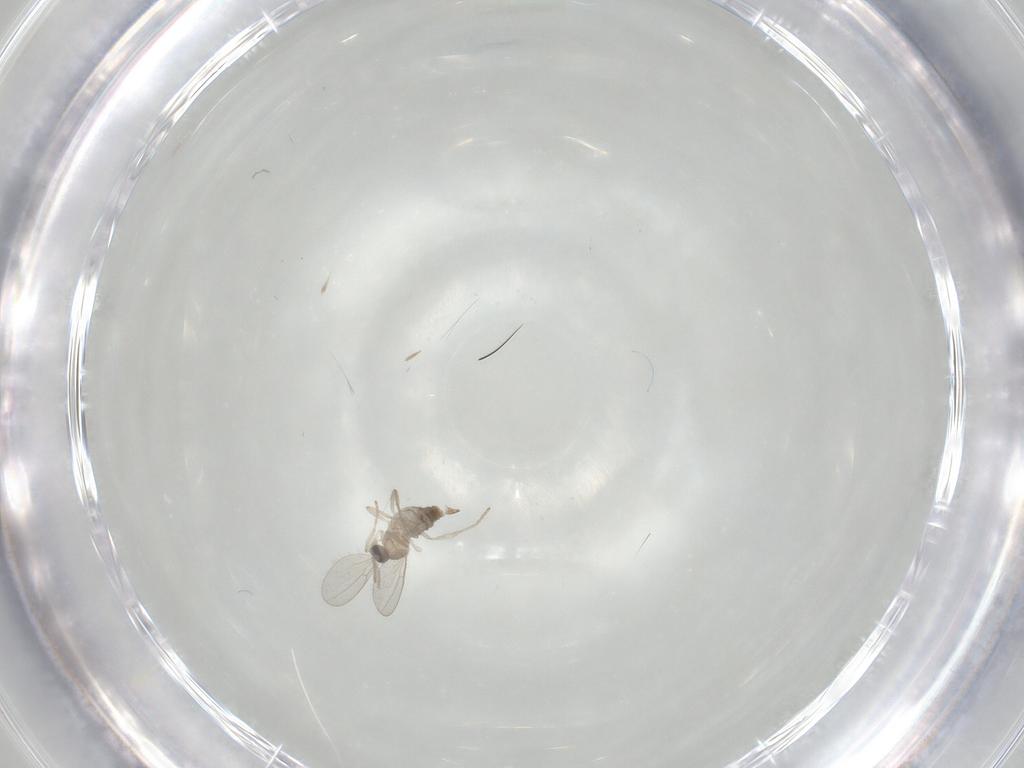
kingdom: Animalia
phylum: Arthropoda
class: Insecta
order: Diptera
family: Cecidomyiidae
